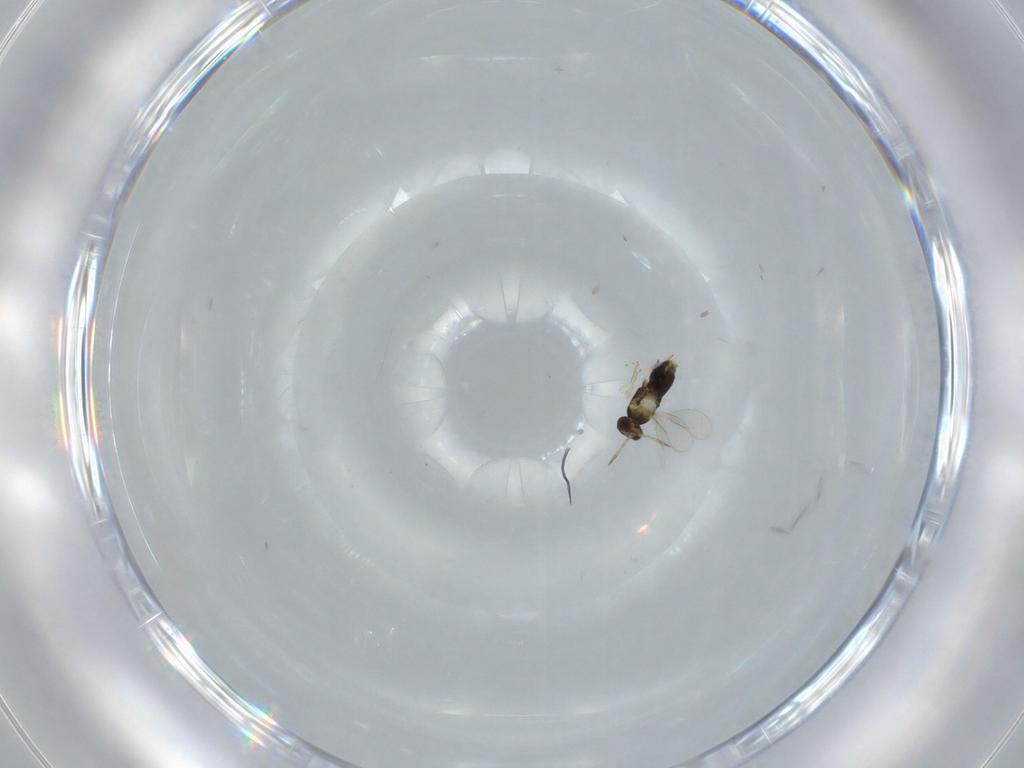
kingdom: Animalia
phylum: Arthropoda
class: Insecta
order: Hymenoptera
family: Aphelinidae
